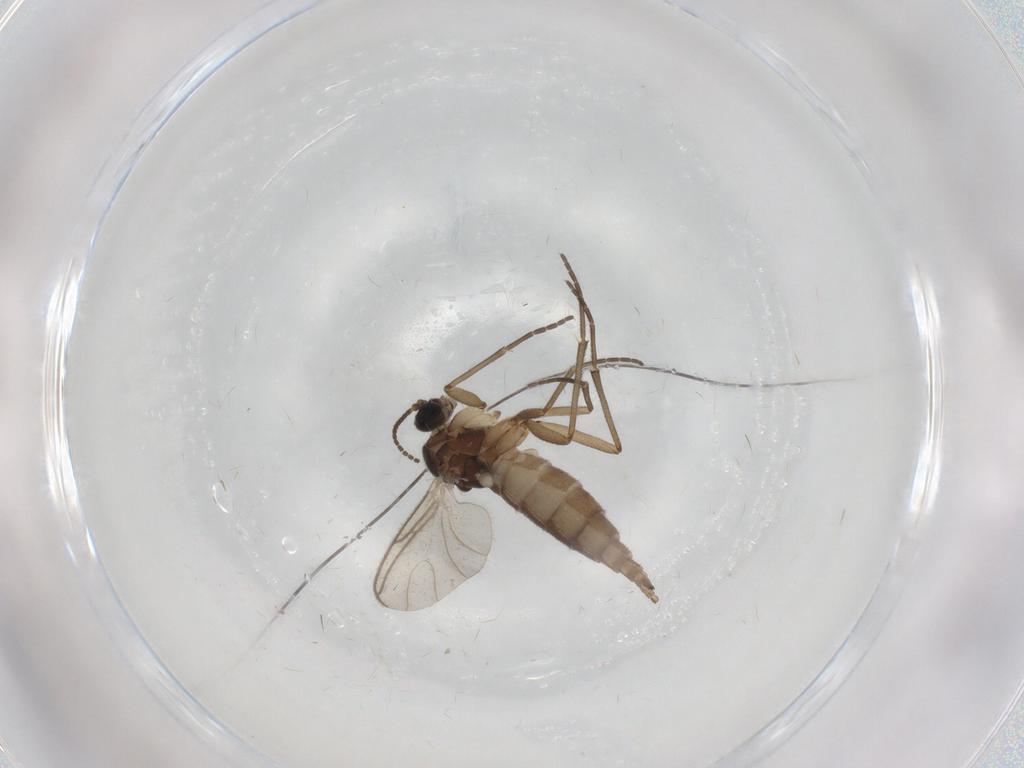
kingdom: Animalia
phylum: Arthropoda
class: Insecta
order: Diptera
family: Sciaridae
